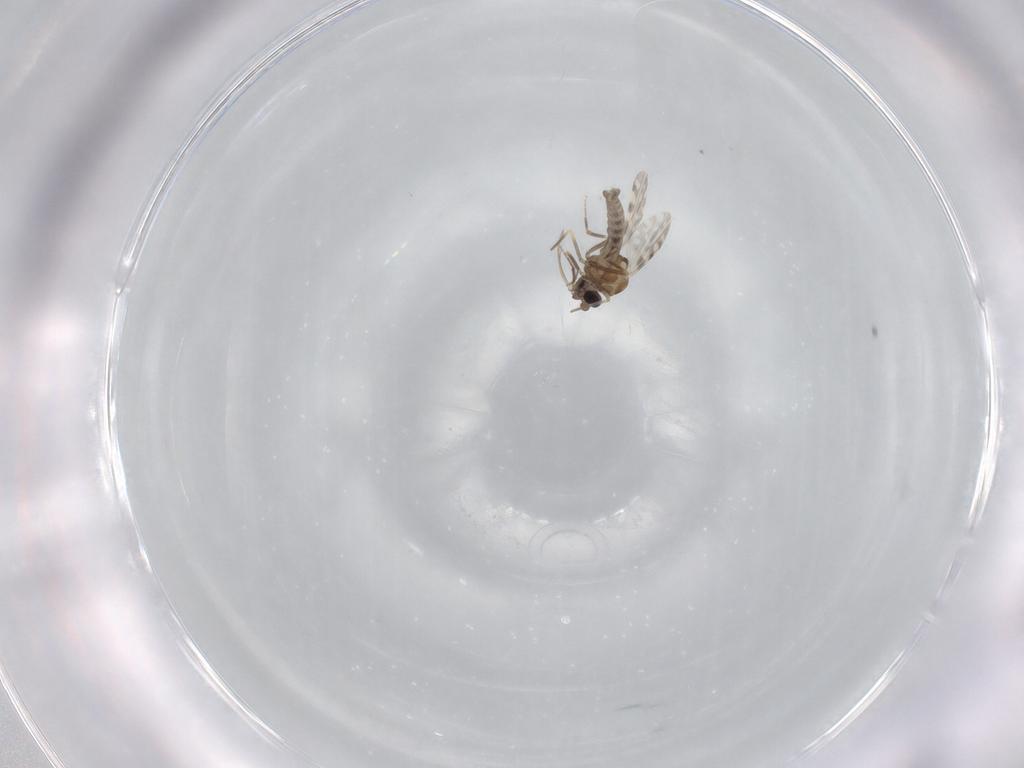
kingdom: Animalia
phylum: Arthropoda
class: Insecta
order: Diptera
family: Ceratopogonidae
